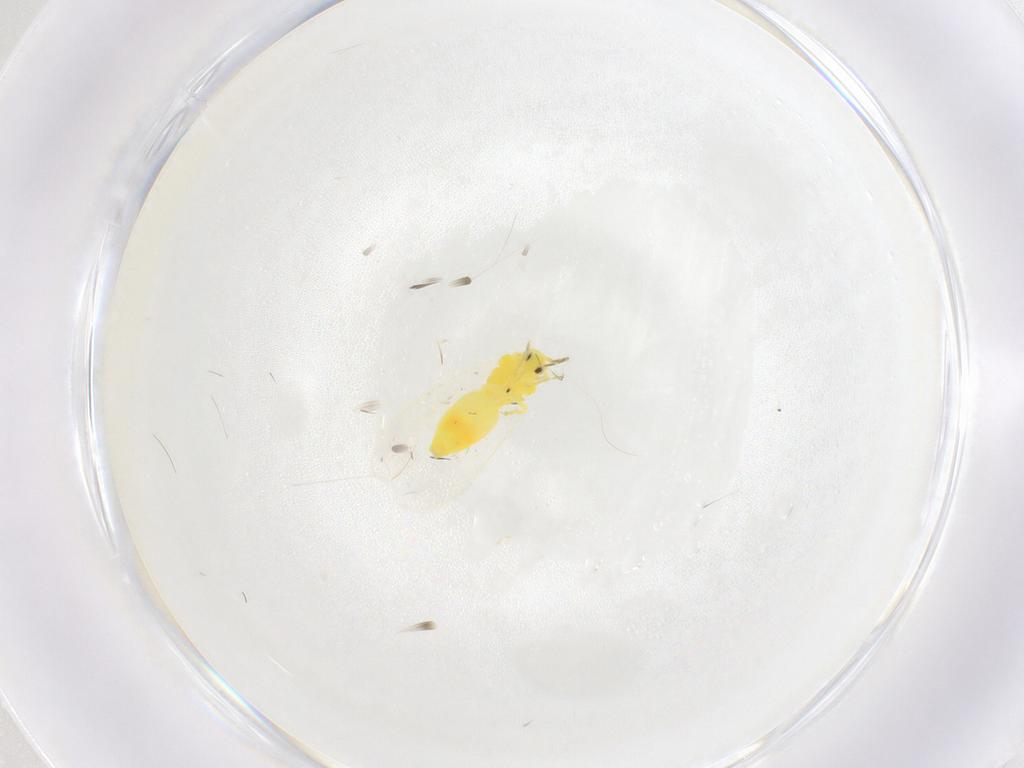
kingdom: Animalia
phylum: Arthropoda
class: Insecta
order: Hemiptera
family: Aleyrodidae
